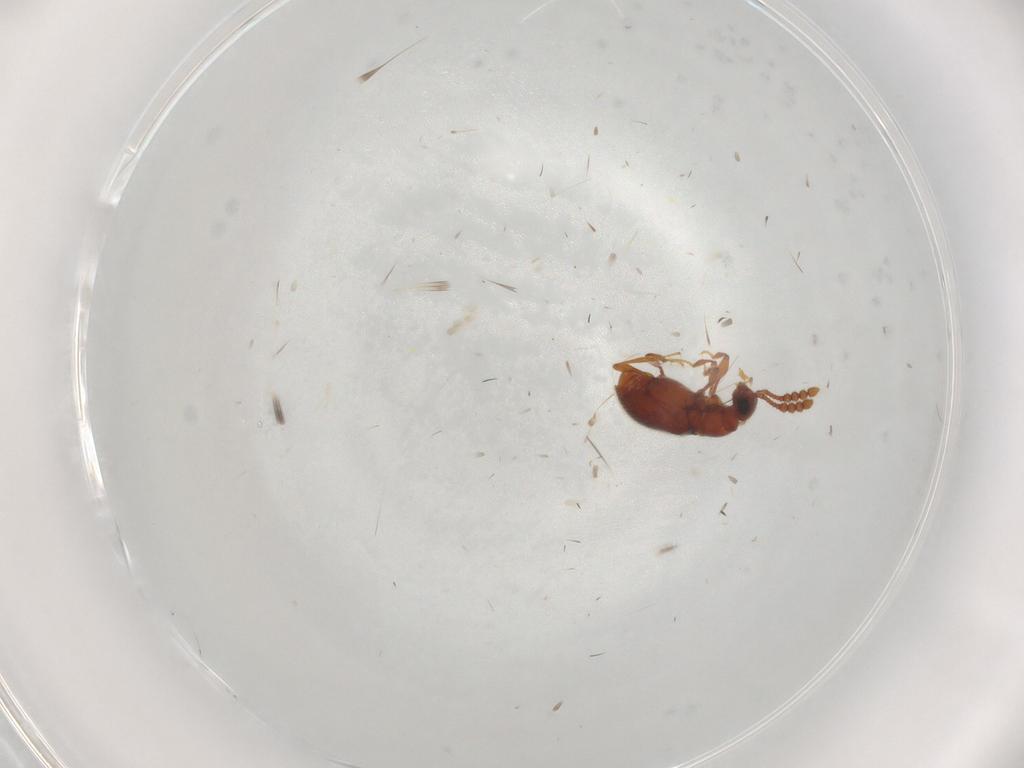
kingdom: Animalia
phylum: Arthropoda
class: Insecta
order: Coleoptera
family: Staphylinidae
